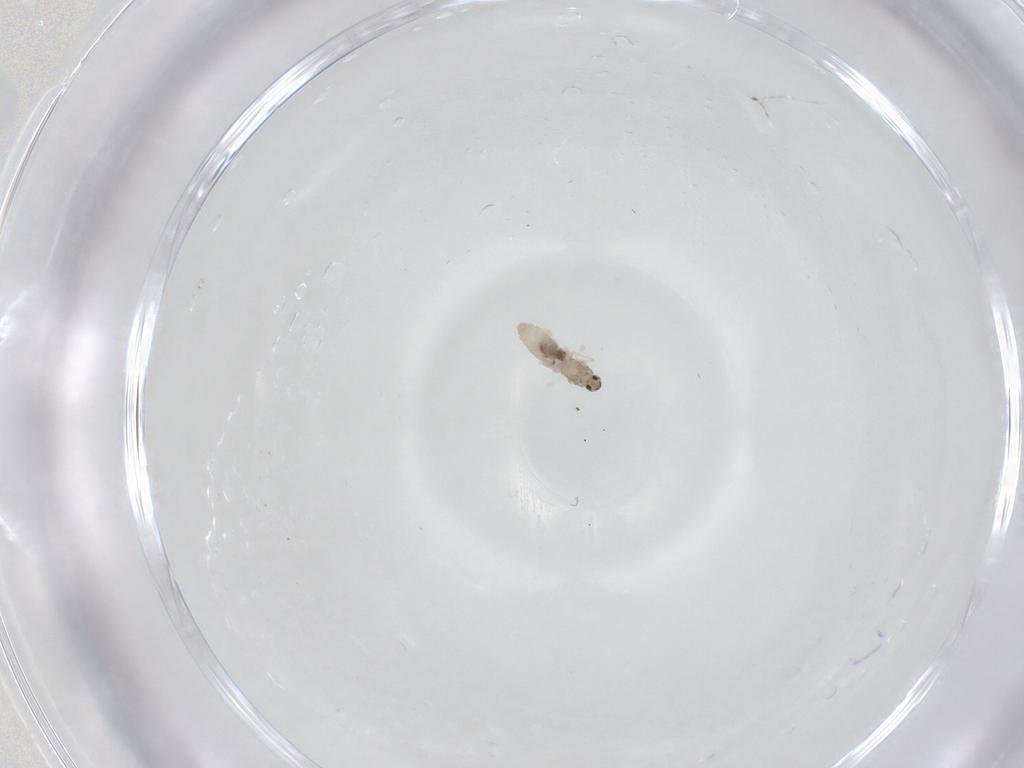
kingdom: Animalia
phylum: Arthropoda
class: Insecta
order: Diptera
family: Cecidomyiidae
